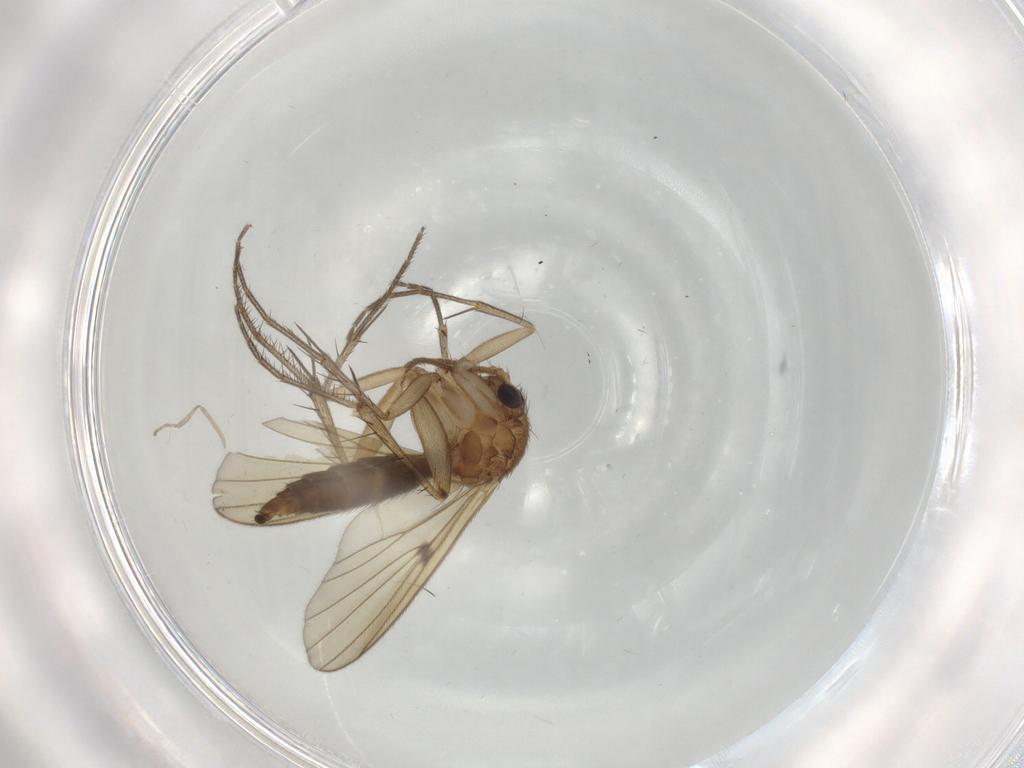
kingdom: Animalia
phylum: Arthropoda
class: Insecta
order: Diptera
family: Mycetophilidae
